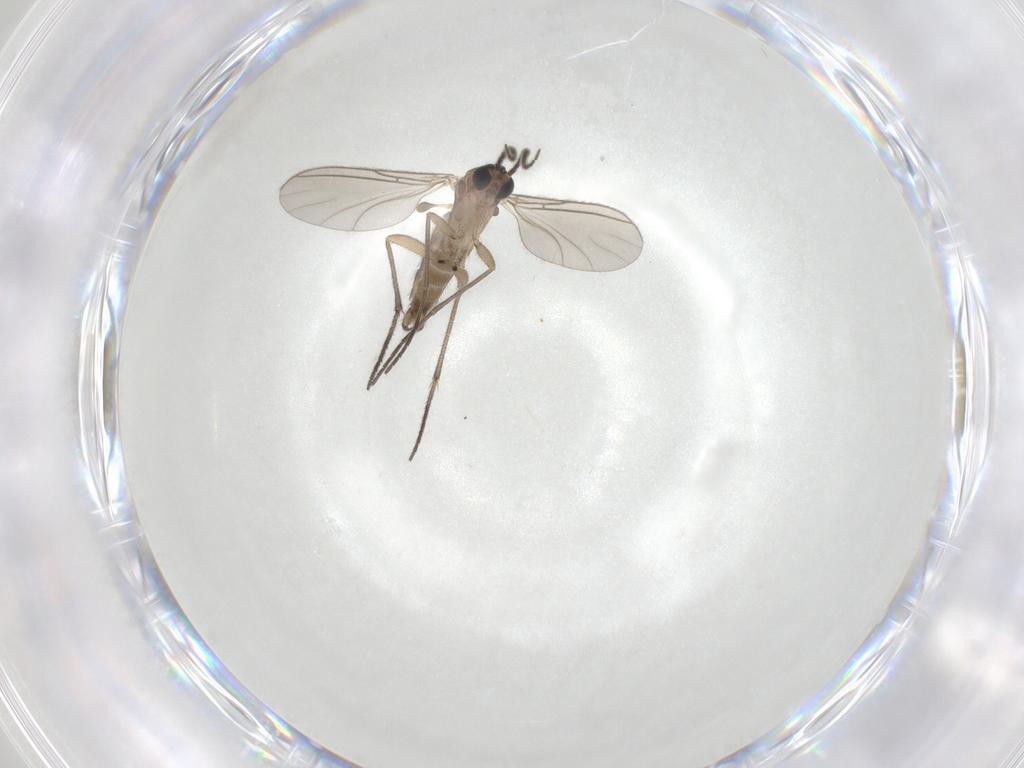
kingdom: Animalia
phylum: Arthropoda
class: Insecta
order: Diptera
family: Sciaridae
